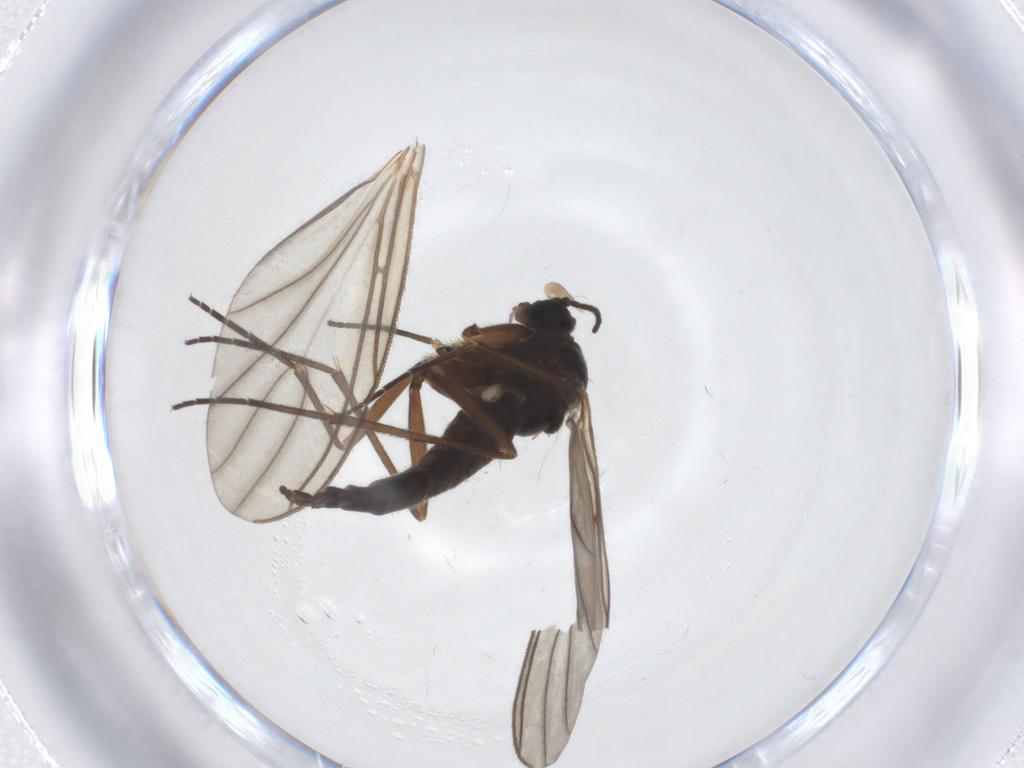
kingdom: Animalia
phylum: Arthropoda
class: Insecta
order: Diptera
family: Sciaridae
